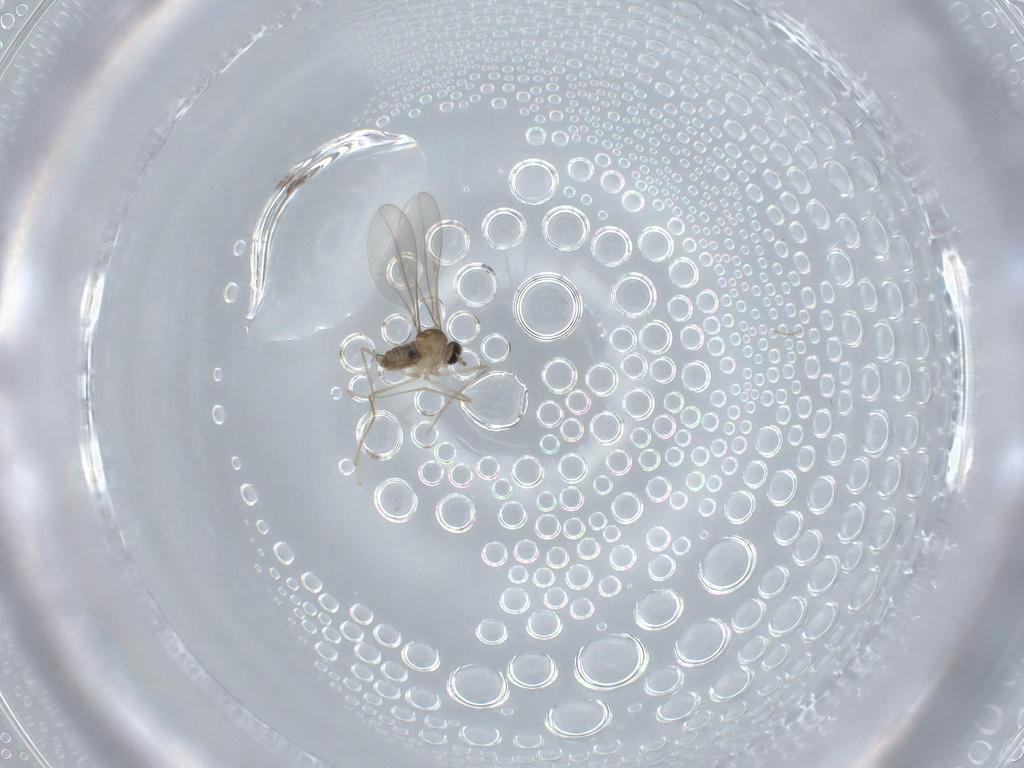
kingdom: Animalia
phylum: Arthropoda
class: Insecta
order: Diptera
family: Cecidomyiidae
